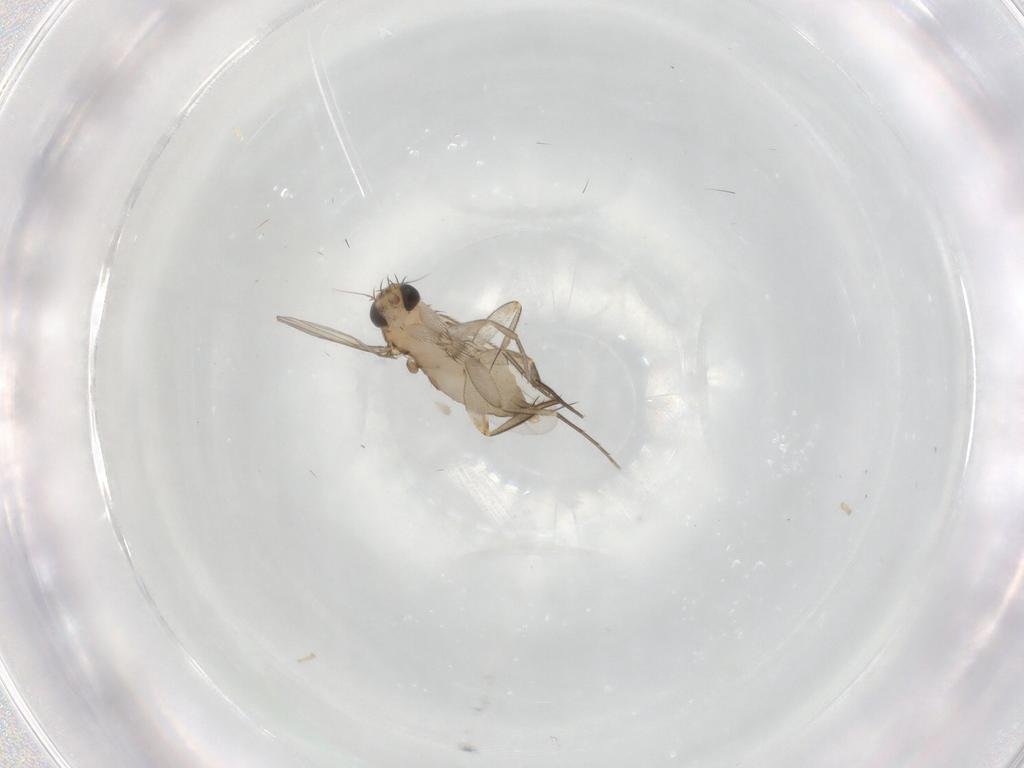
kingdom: Animalia
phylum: Arthropoda
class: Insecta
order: Diptera
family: Phoridae
